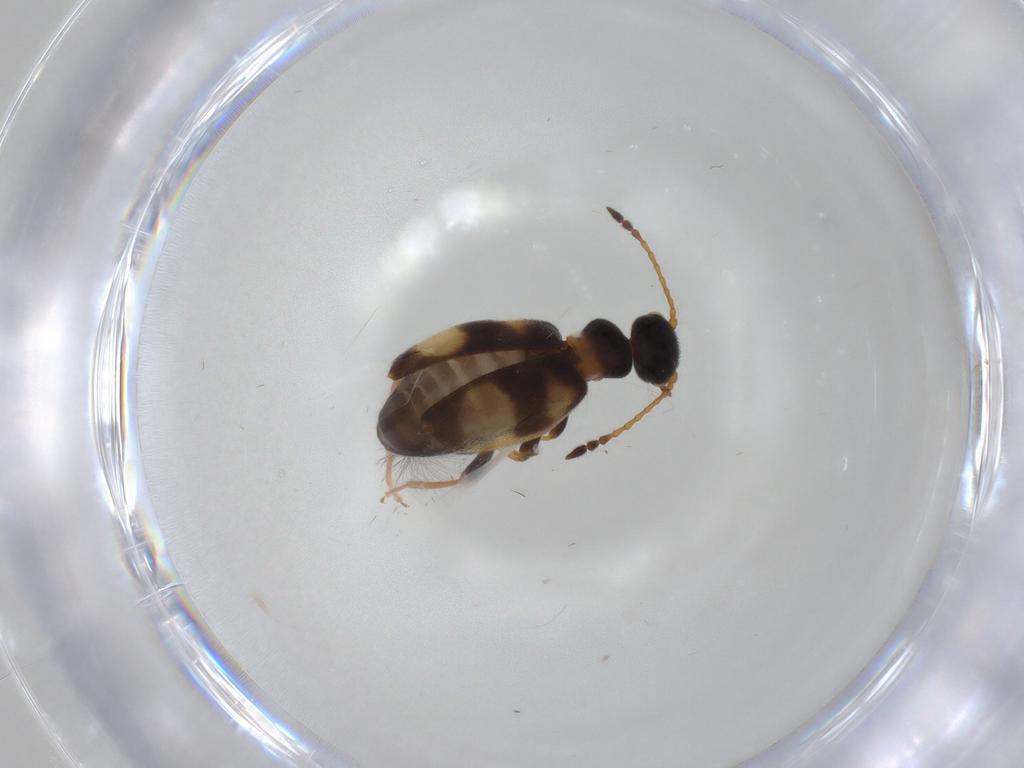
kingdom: Animalia
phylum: Arthropoda
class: Insecta
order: Coleoptera
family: Anthicidae
